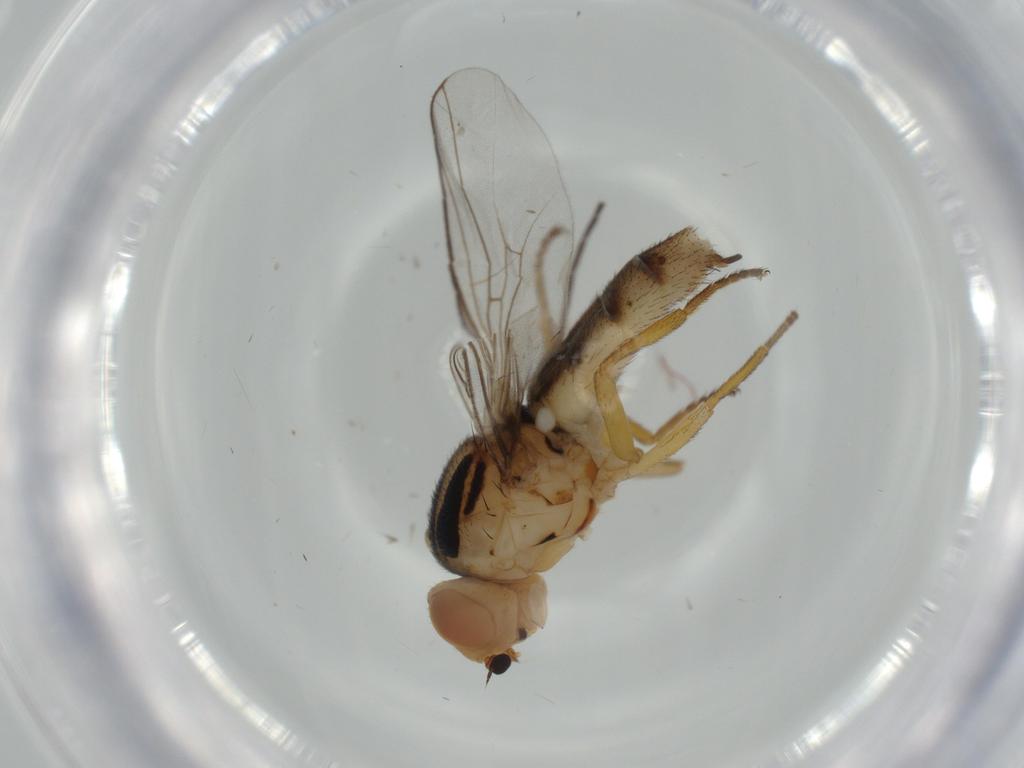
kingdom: Animalia
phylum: Arthropoda
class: Insecta
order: Diptera
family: Chloropidae
